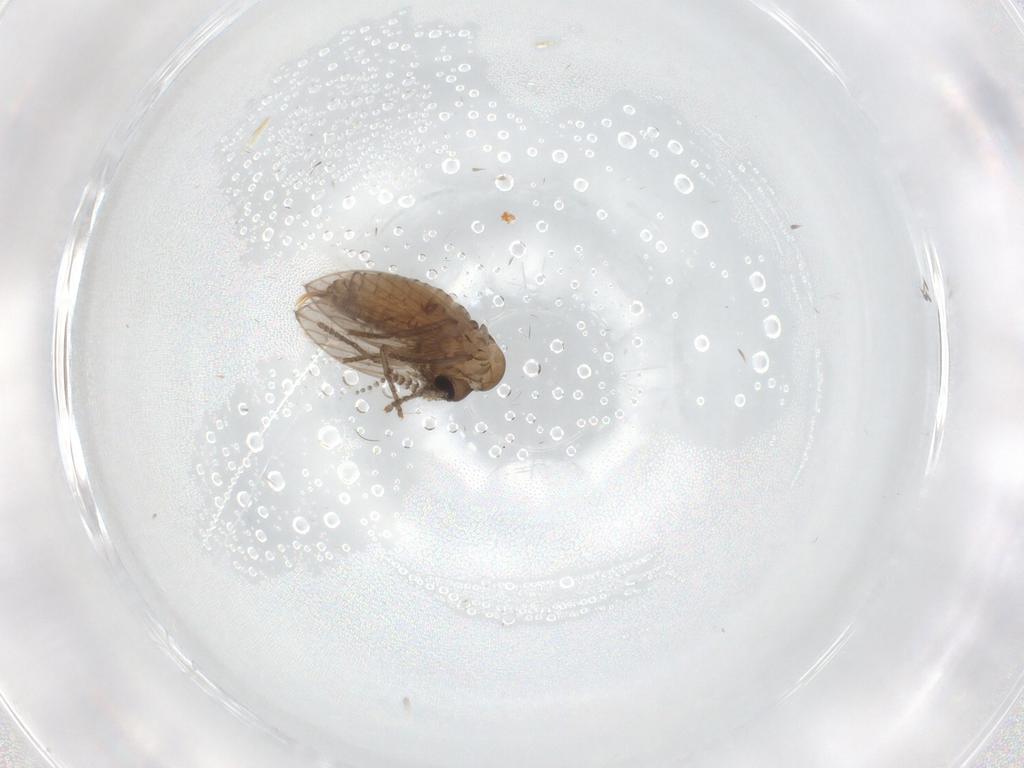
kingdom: Animalia
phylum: Arthropoda
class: Insecta
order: Diptera
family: Psychodidae
